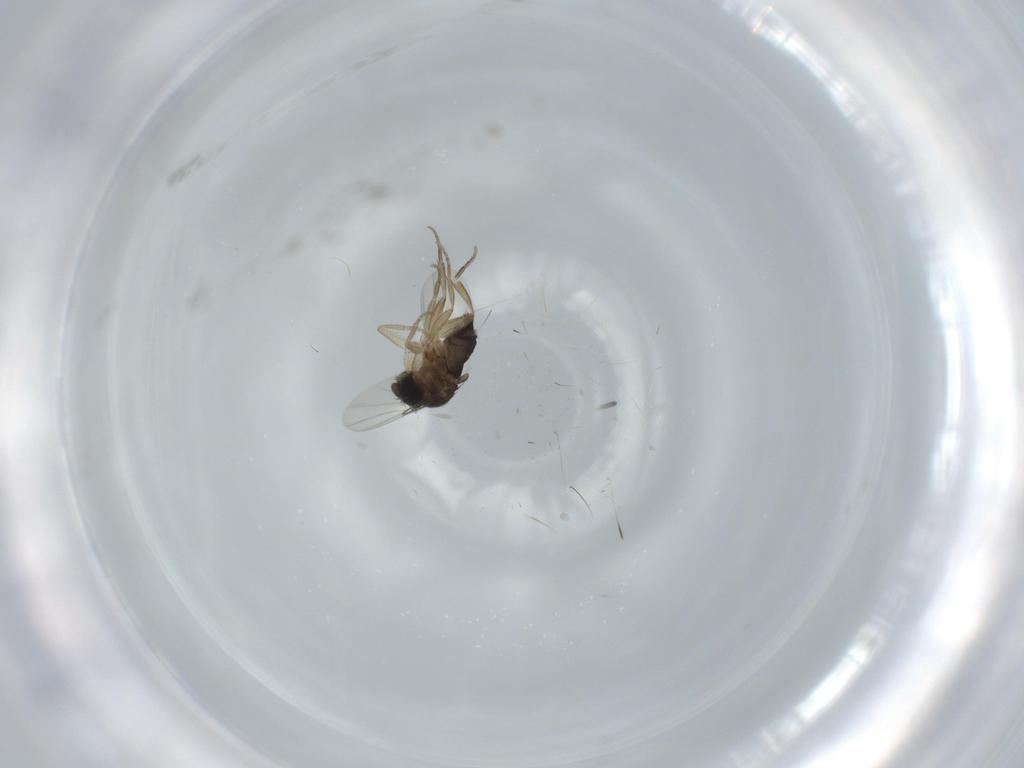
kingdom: Animalia
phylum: Arthropoda
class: Insecta
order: Diptera
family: Phoridae
